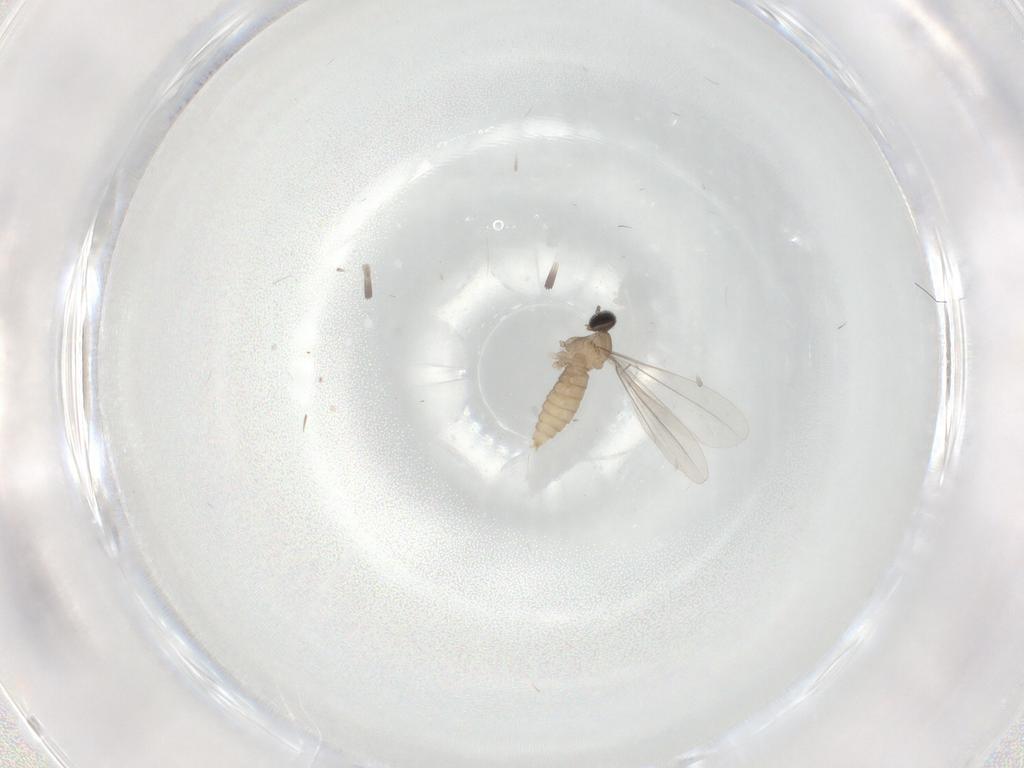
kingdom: Animalia
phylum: Arthropoda
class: Insecta
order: Diptera
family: Cecidomyiidae
